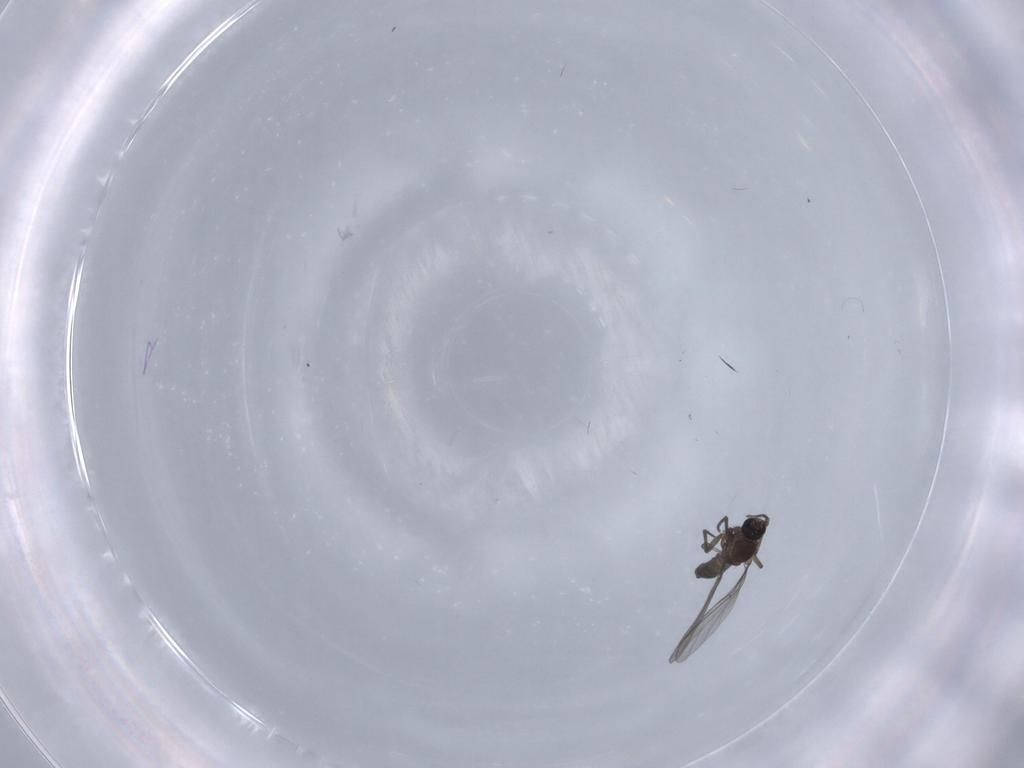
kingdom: Animalia
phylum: Arthropoda
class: Insecta
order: Diptera
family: Sciaridae
